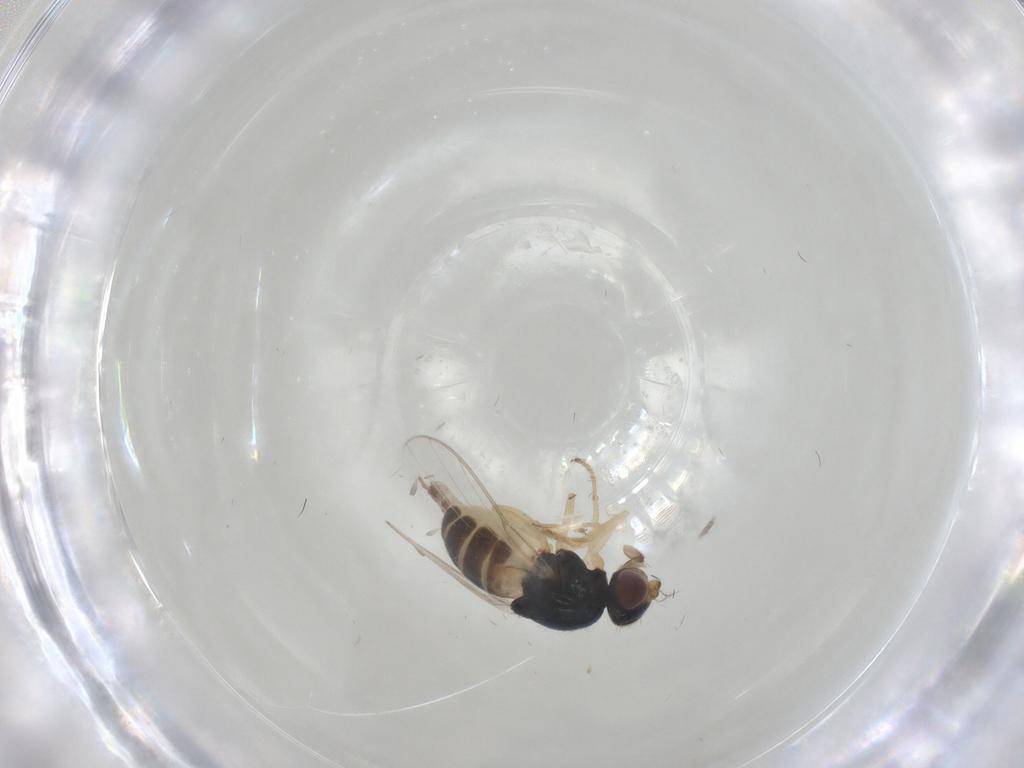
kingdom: Animalia
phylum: Arthropoda
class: Insecta
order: Diptera
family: Chloropidae
